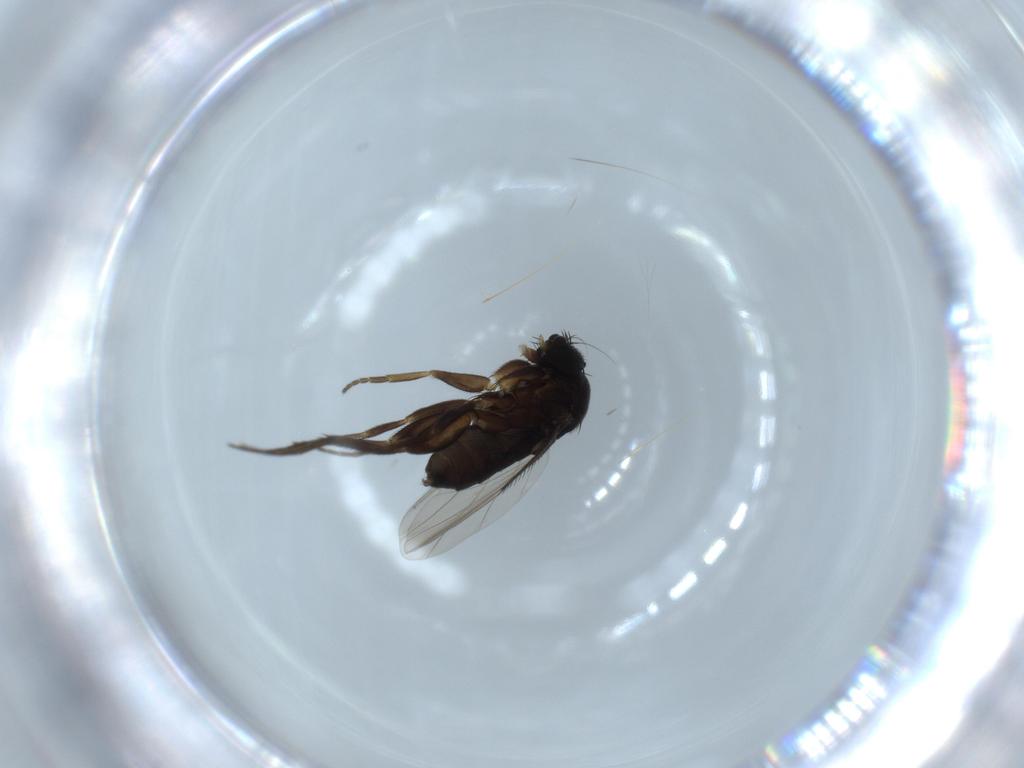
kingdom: Animalia
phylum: Arthropoda
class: Insecta
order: Diptera
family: Phoridae
